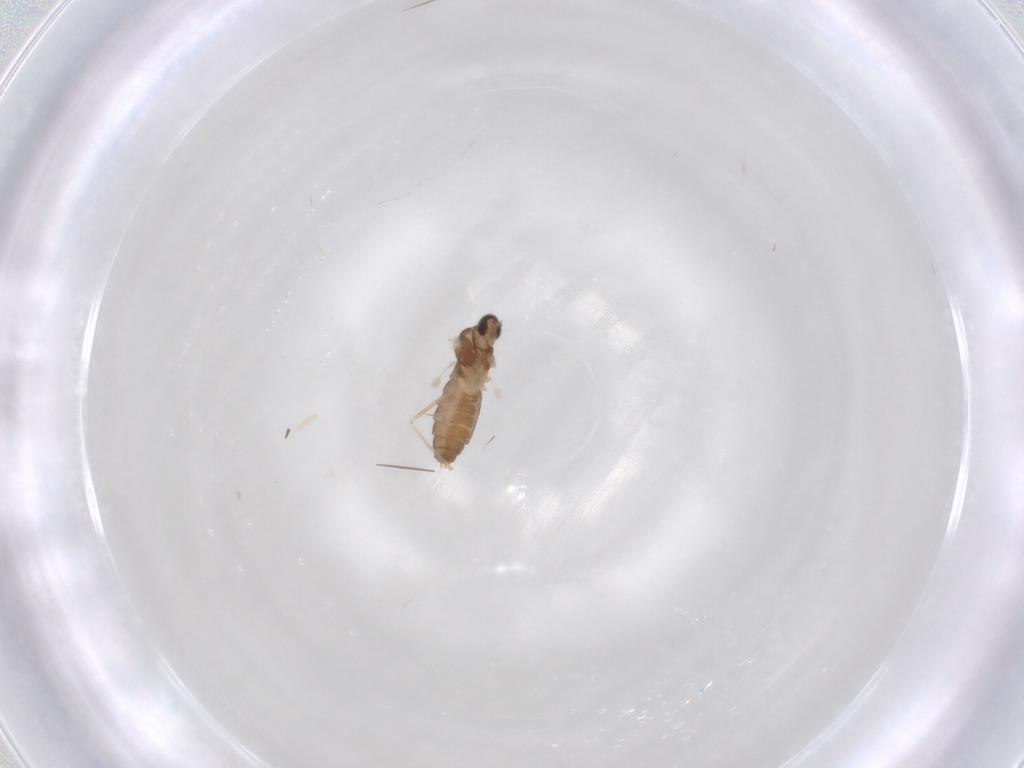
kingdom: Animalia
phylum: Arthropoda
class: Insecta
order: Diptera
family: Cecidomyiidae
